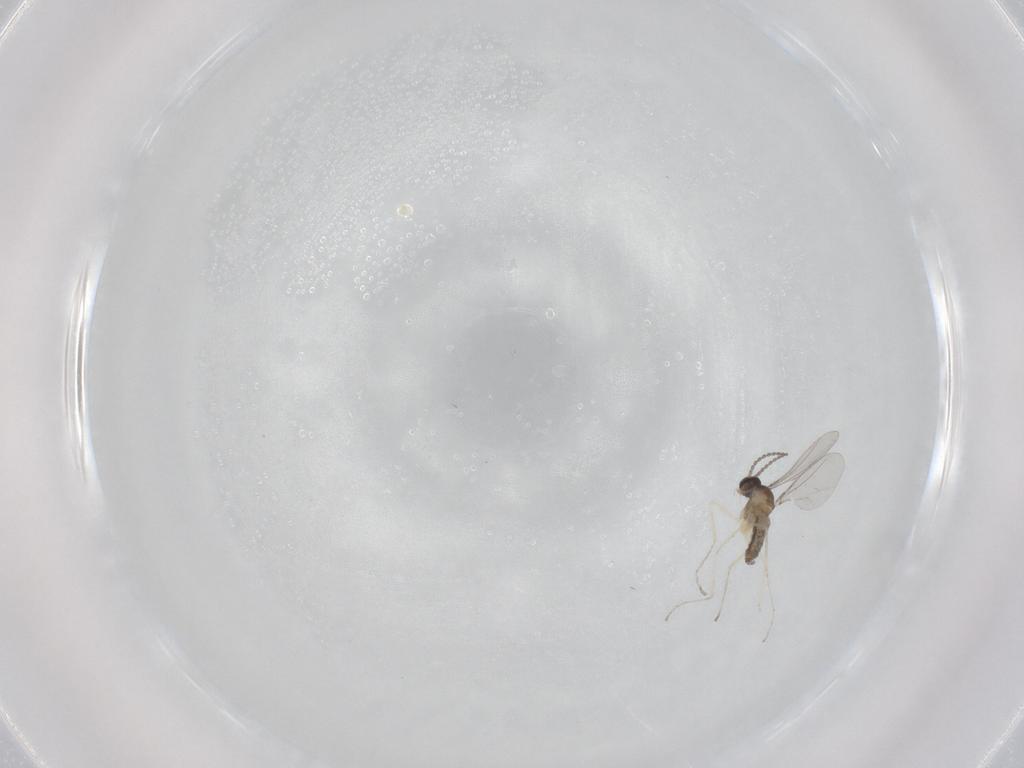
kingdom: Animalia
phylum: Arthropoda
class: Insecta
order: Diptera
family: Cecidomyiidae
